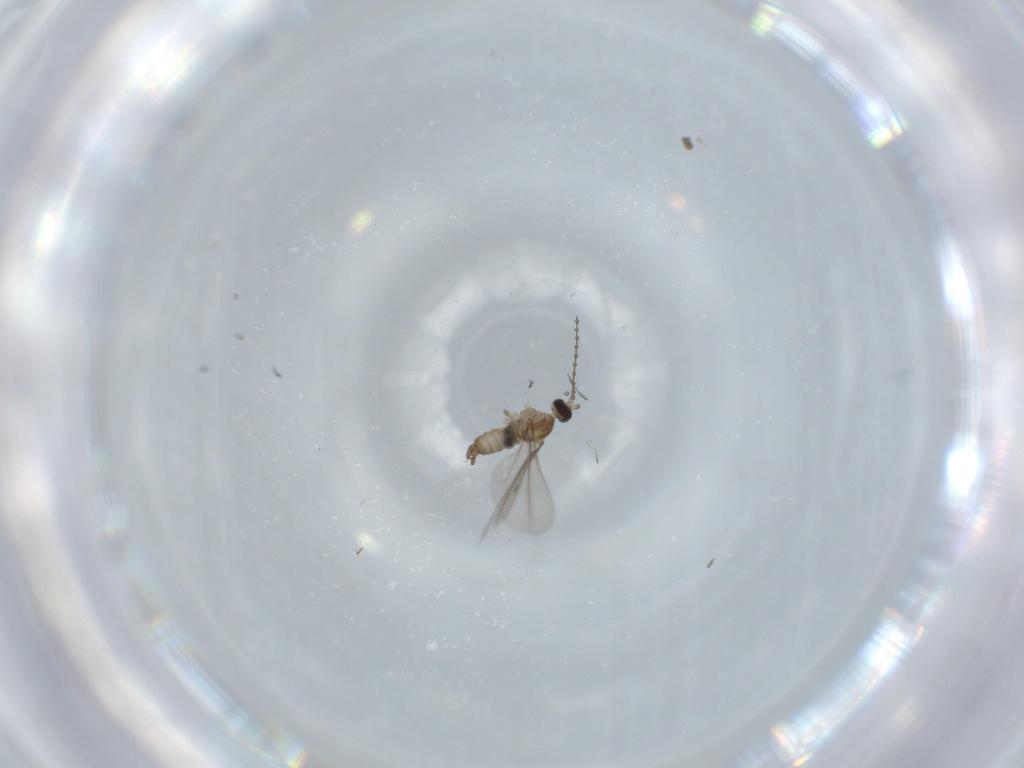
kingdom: Animalia
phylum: Arthropoda
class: Insecta
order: Diptera
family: Cecidomyiidae
